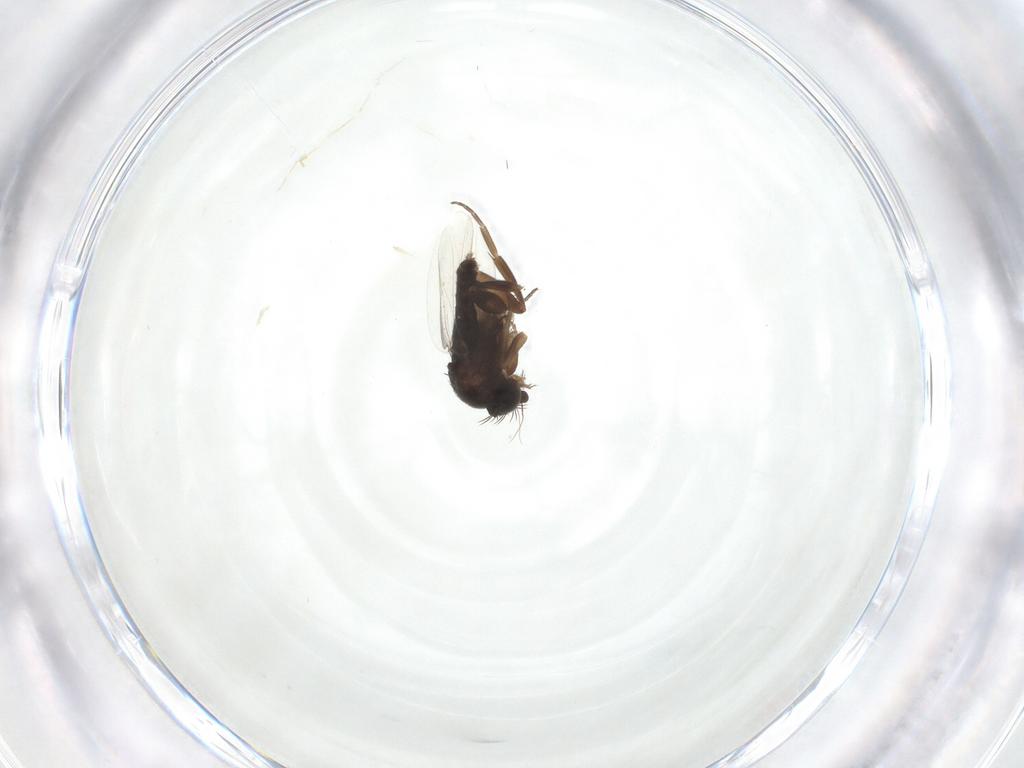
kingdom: Animalia
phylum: Arthropoda
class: Insecta
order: Diptera
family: Phoridae
